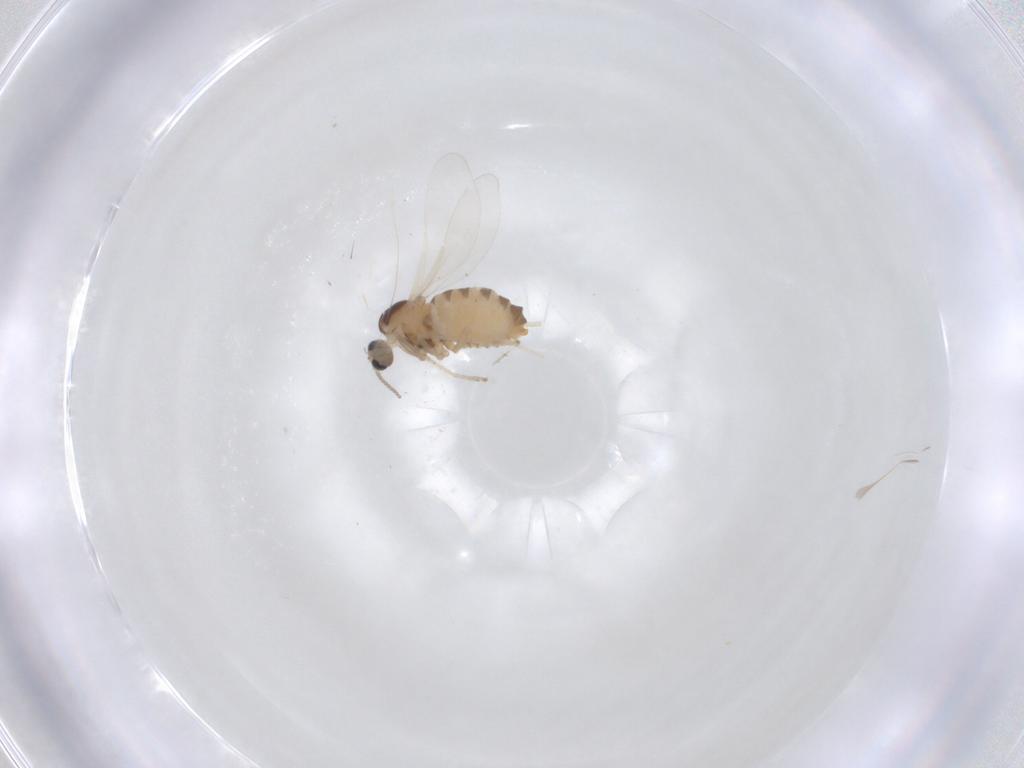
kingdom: Animalia
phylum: Arthropoda
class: Insecta
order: Diptera
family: Cecidomyiidae
